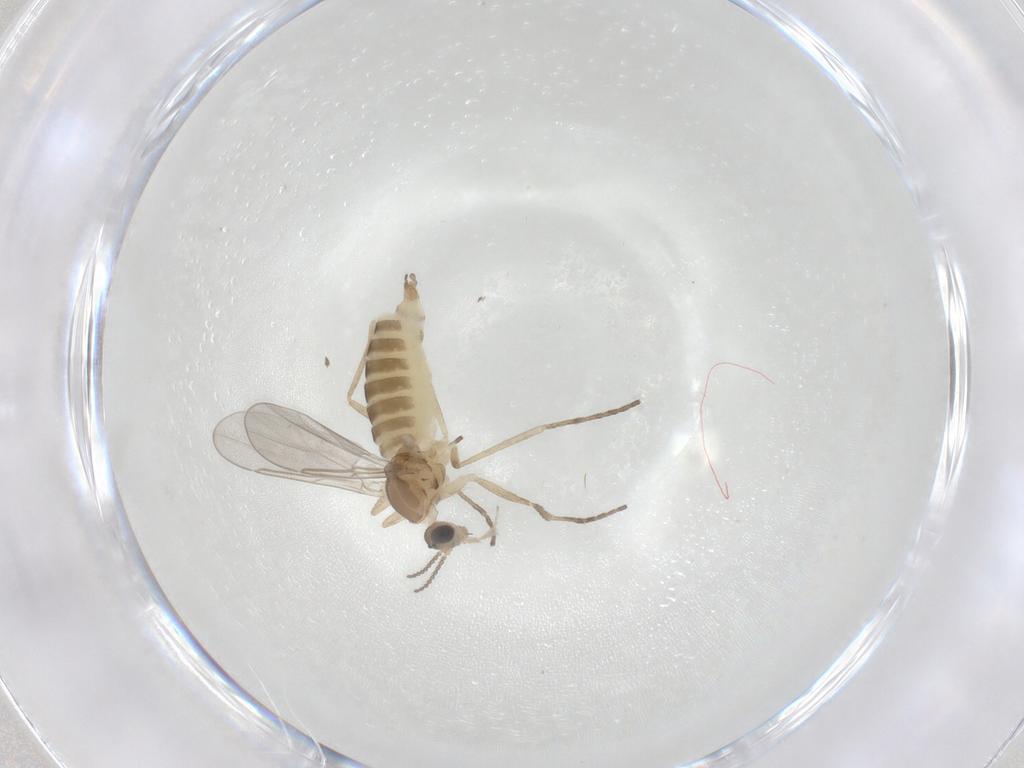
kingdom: Animalia
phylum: Arthropoda
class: Insecta
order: Diptera
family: Cecidomyiidae
